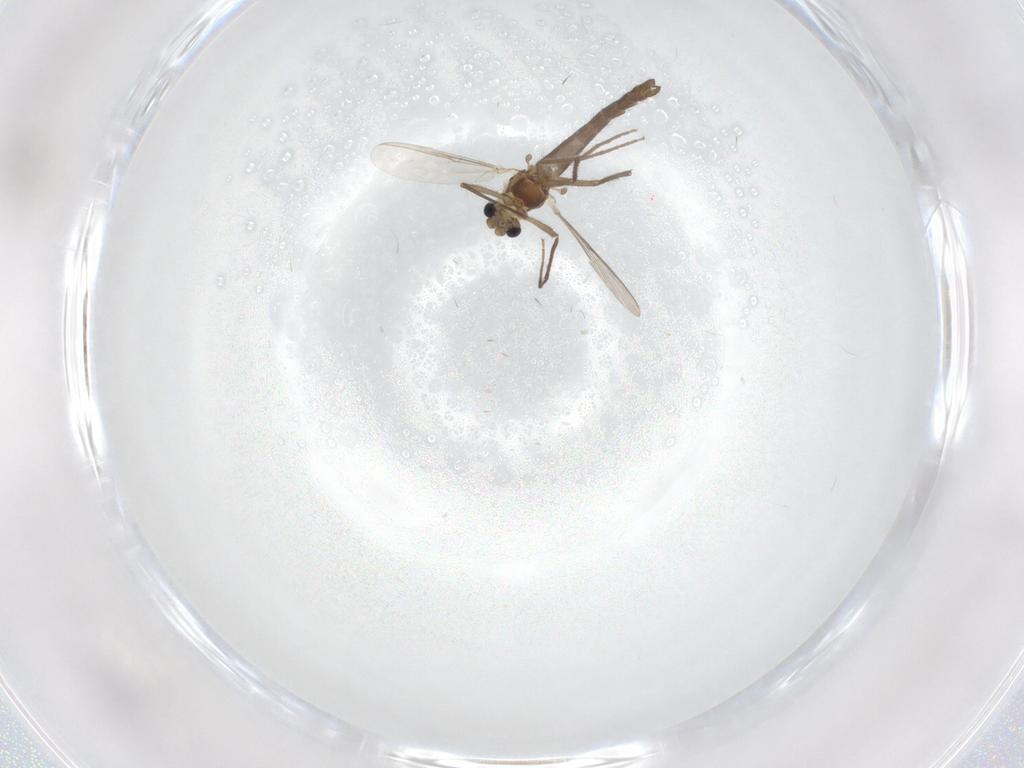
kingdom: Animalia
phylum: Arthropoda
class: Insecta
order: Diptera
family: Chironomidae
